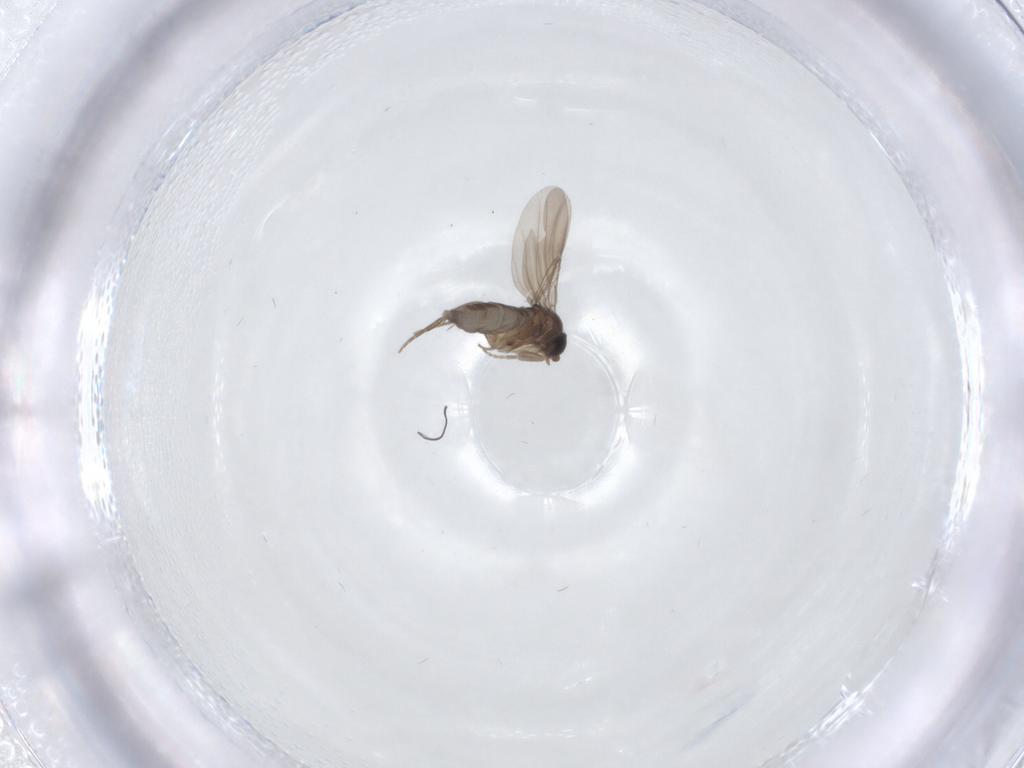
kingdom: Animalia
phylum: Arthropoda
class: Insecta
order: Diptera
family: Phoridae
